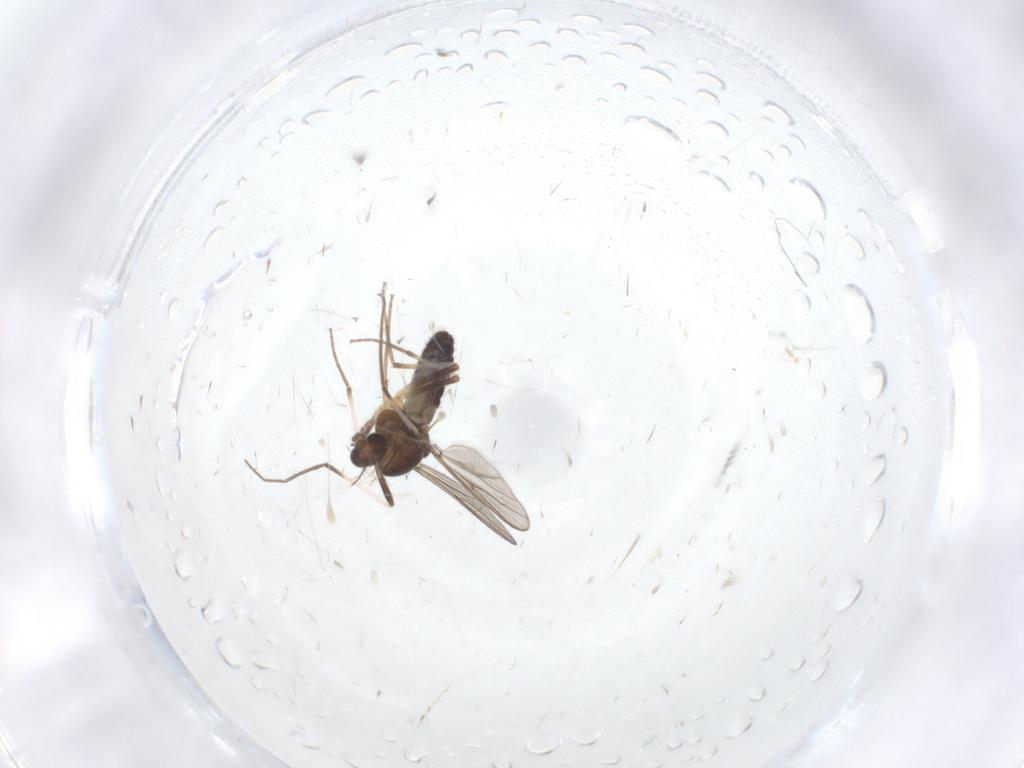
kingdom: Animalia
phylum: Arthropoda
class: Insecta
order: Diptera
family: Chironomidae
